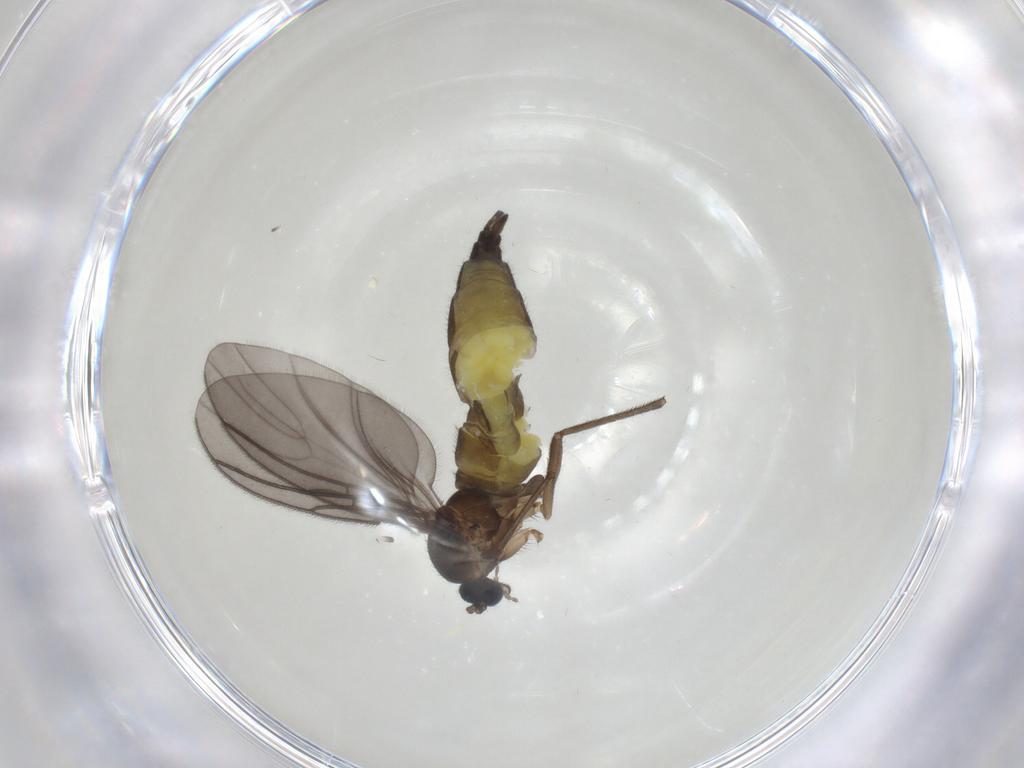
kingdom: Animalia
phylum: Arthropoda
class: Insecta
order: Diptera
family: Sciaridae
